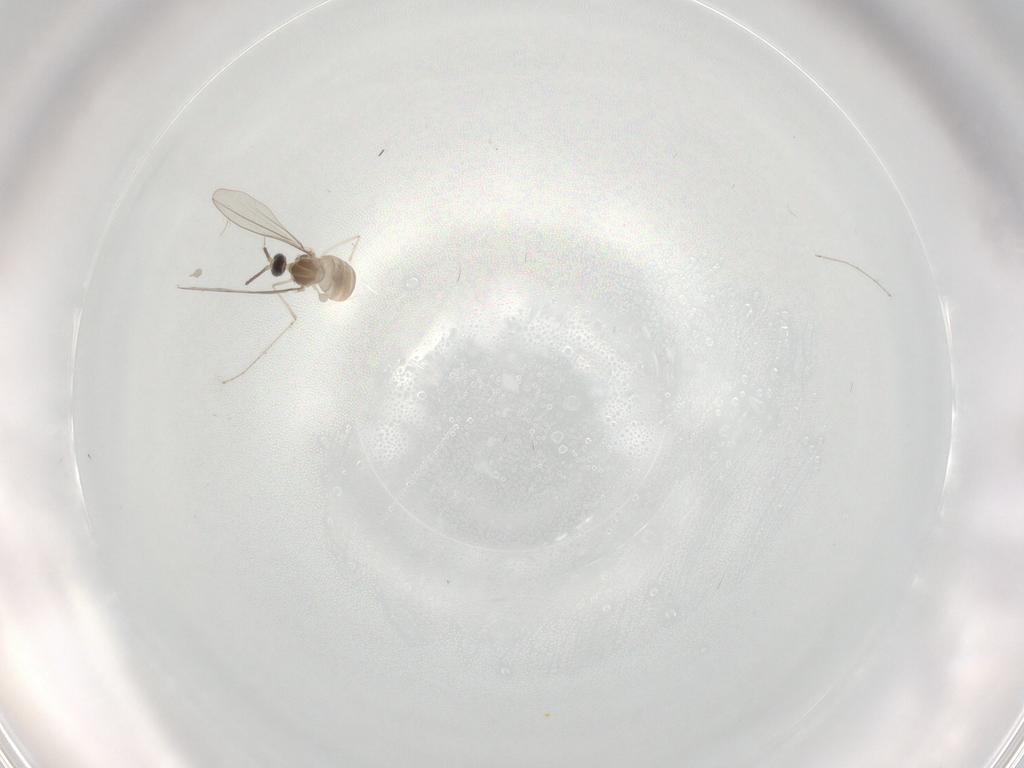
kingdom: Animalia
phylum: Arthropoda
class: Insecta
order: Diptera
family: Cecidomyiidae
